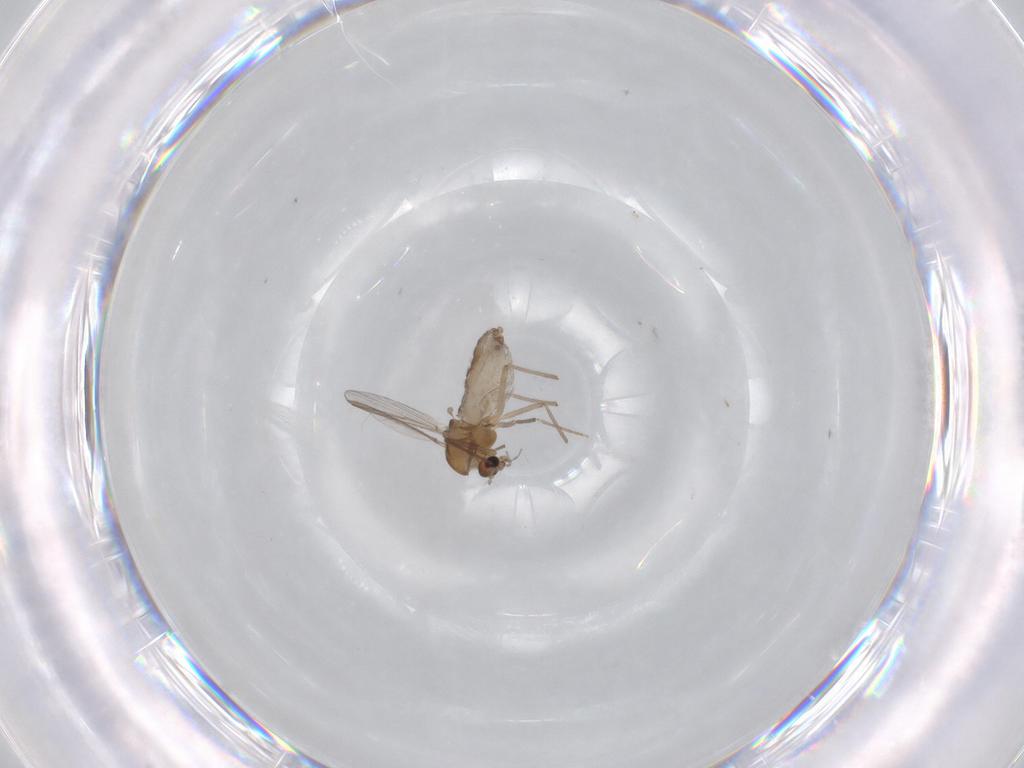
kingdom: Animalia
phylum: Arthropoda
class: Insecta
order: Diptera
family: Chironomidae
